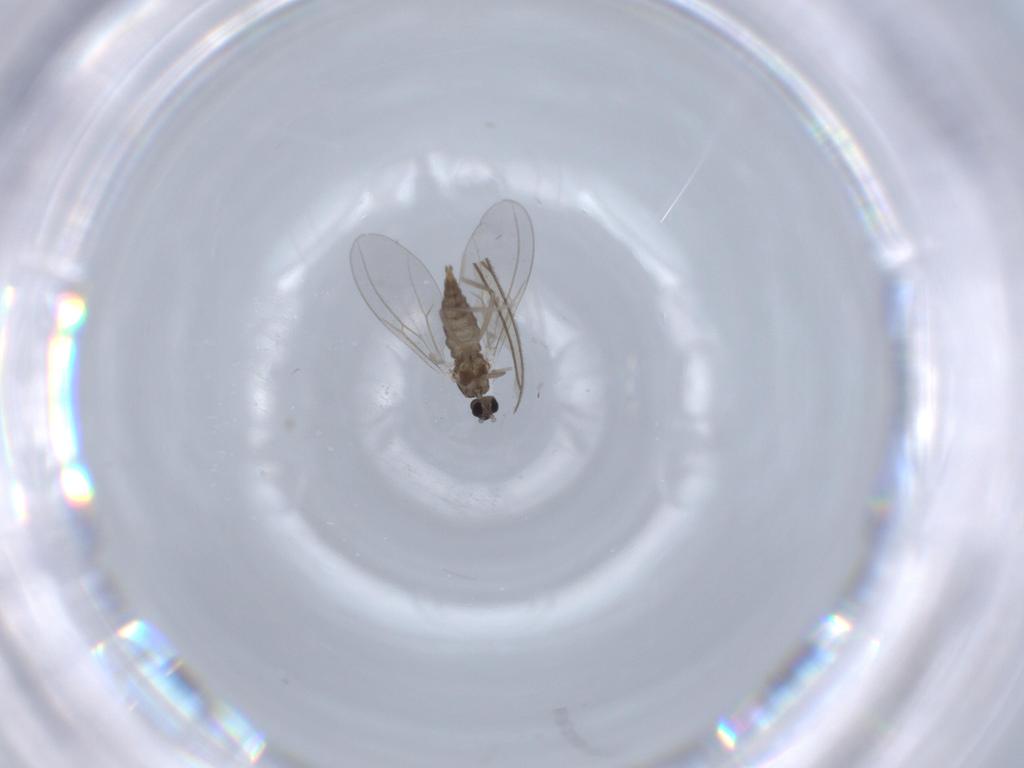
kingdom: Animalia
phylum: Arthropoda
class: Insecta
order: Diptera
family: Cecidomyiidae
